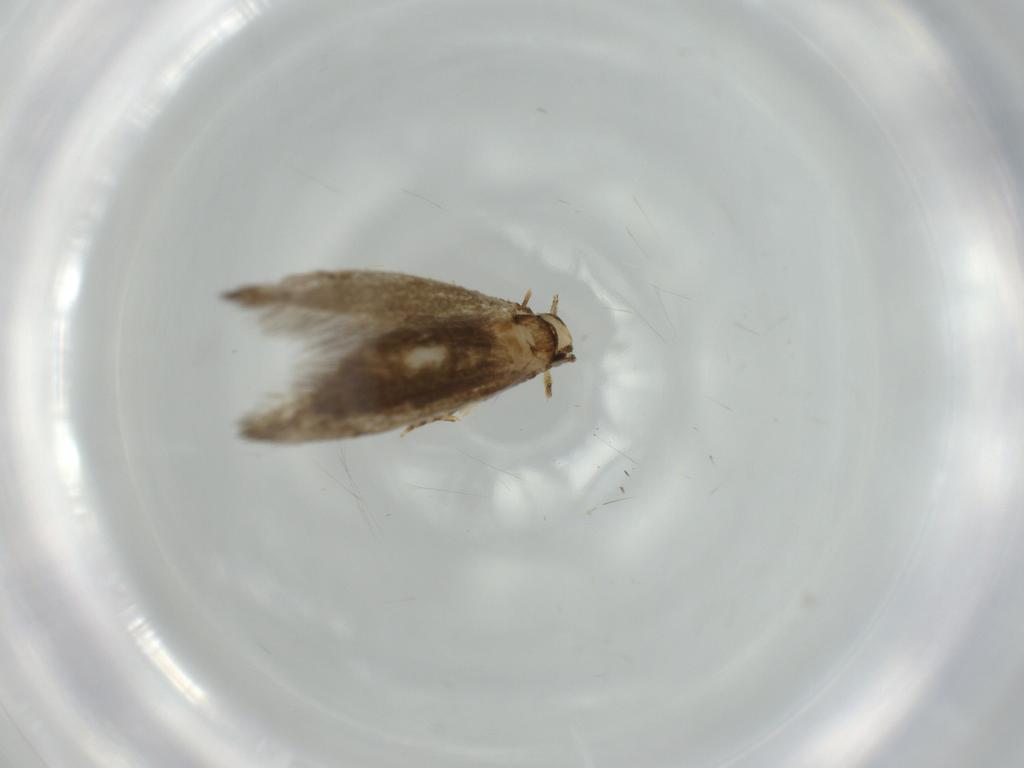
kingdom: Animalia
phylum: Arthropoda
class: Insecta
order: Lepidoptera
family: Tineidae
